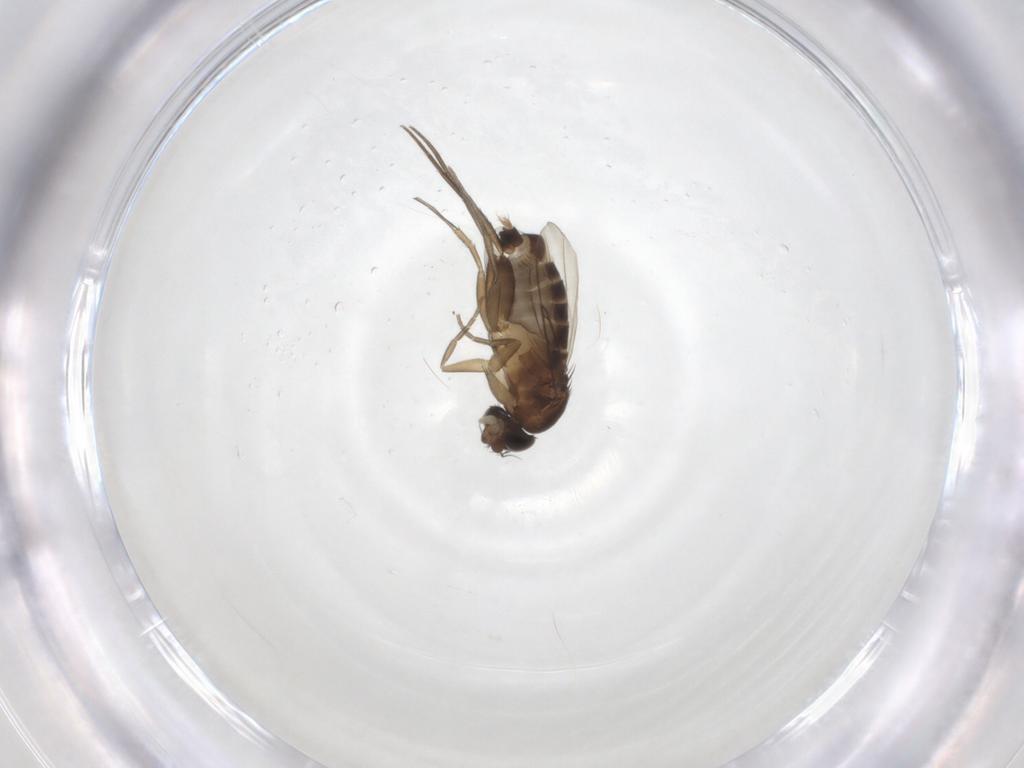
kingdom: Animalia
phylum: Arthropoda
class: Insecta
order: Diptera
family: Phoridae
